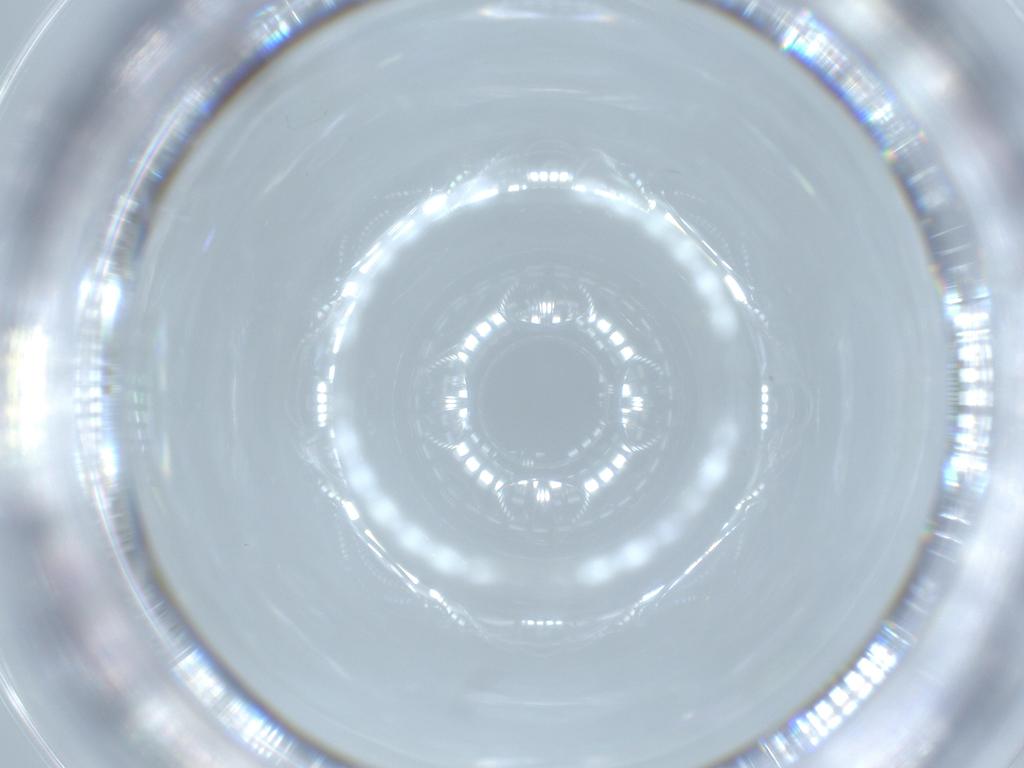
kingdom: Animalia
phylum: Arthropoda
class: Insecta
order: Diptera
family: Sciaridae
